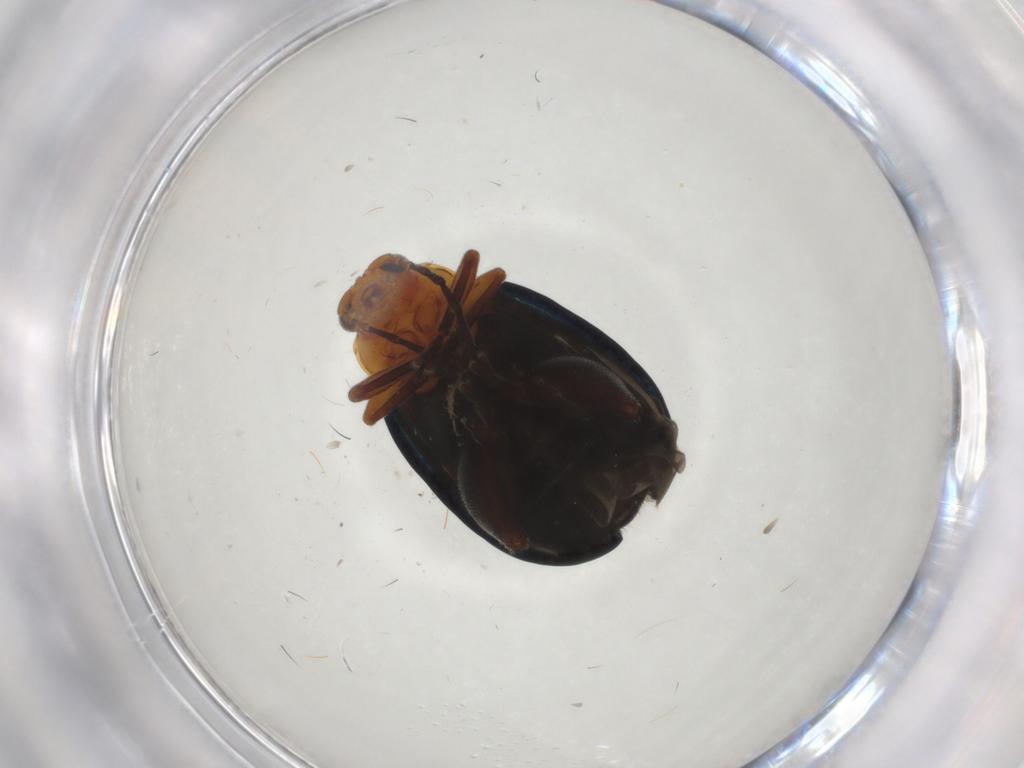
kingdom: Animalia
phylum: Arthropoda
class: Insecta
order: Coleoptera
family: Chrysomelidae
